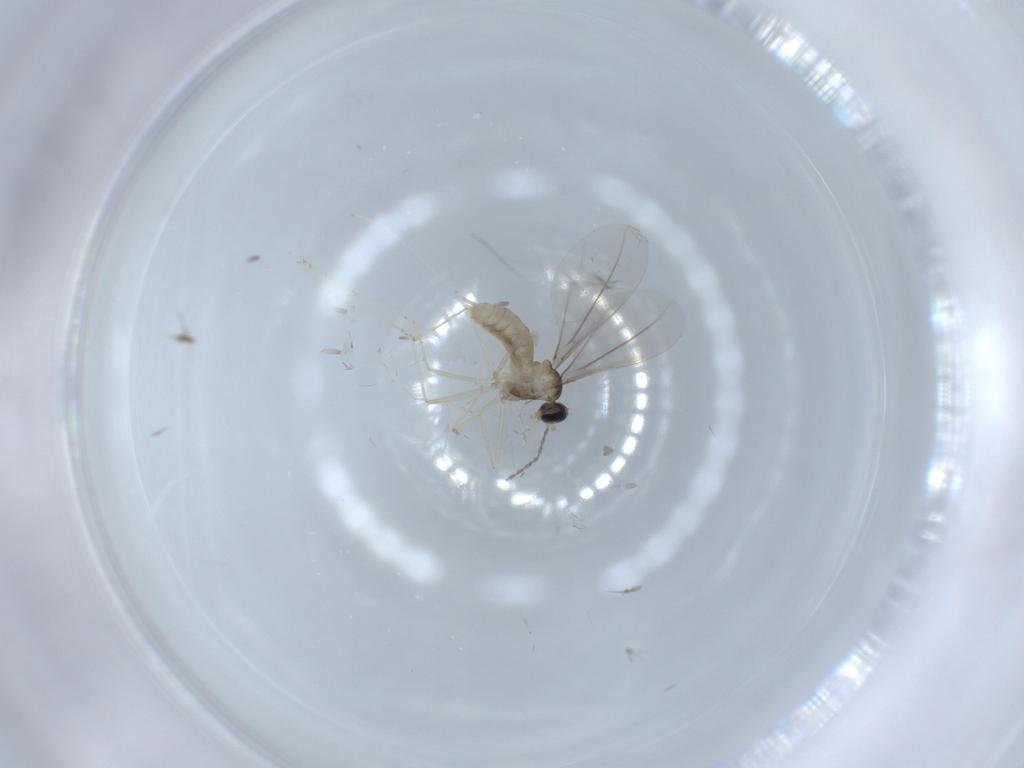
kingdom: Animalia
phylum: Arthropoda
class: Insecta
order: Diptera
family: Cecidomyiidae
